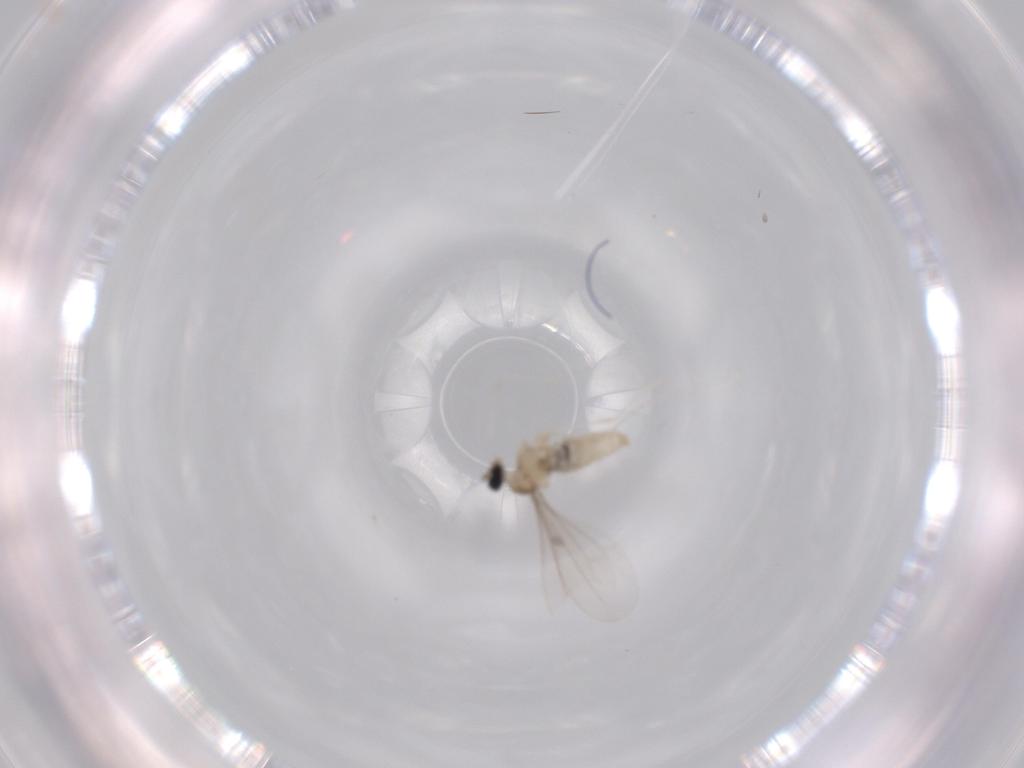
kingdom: Animalia
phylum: Arthropoda
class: Insecta
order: Diptera
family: Cecidomyiidae
